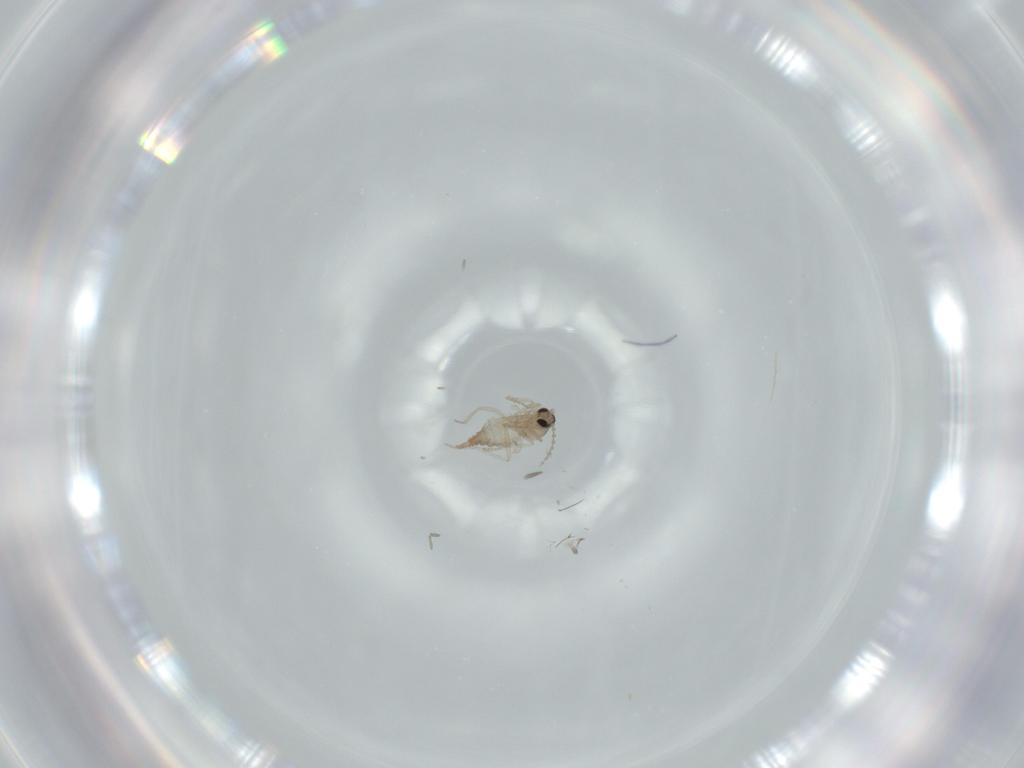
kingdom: Animalia
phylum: Arthropoda
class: Insecta
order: Diptera
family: Cecidomyiidae
